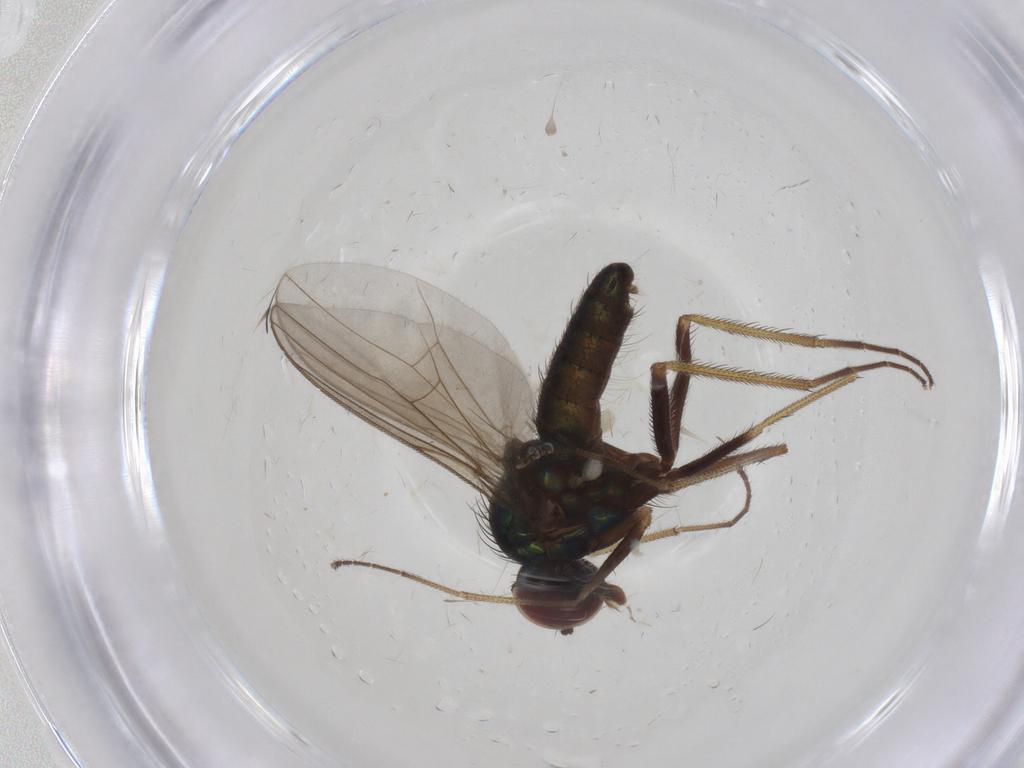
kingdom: Animalia
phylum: Arthropoda
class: Insecta
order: Diptera
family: Dolichopodidae
